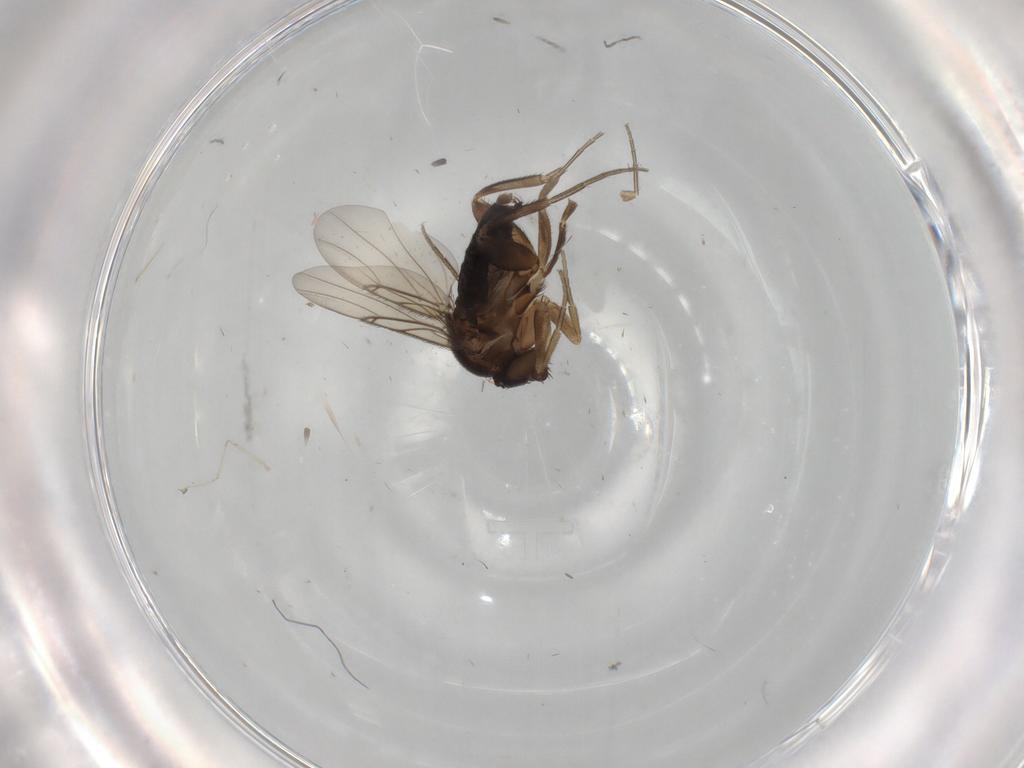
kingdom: Animalia
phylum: Arthropoda
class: Insecta
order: Diptera
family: Phoridae
